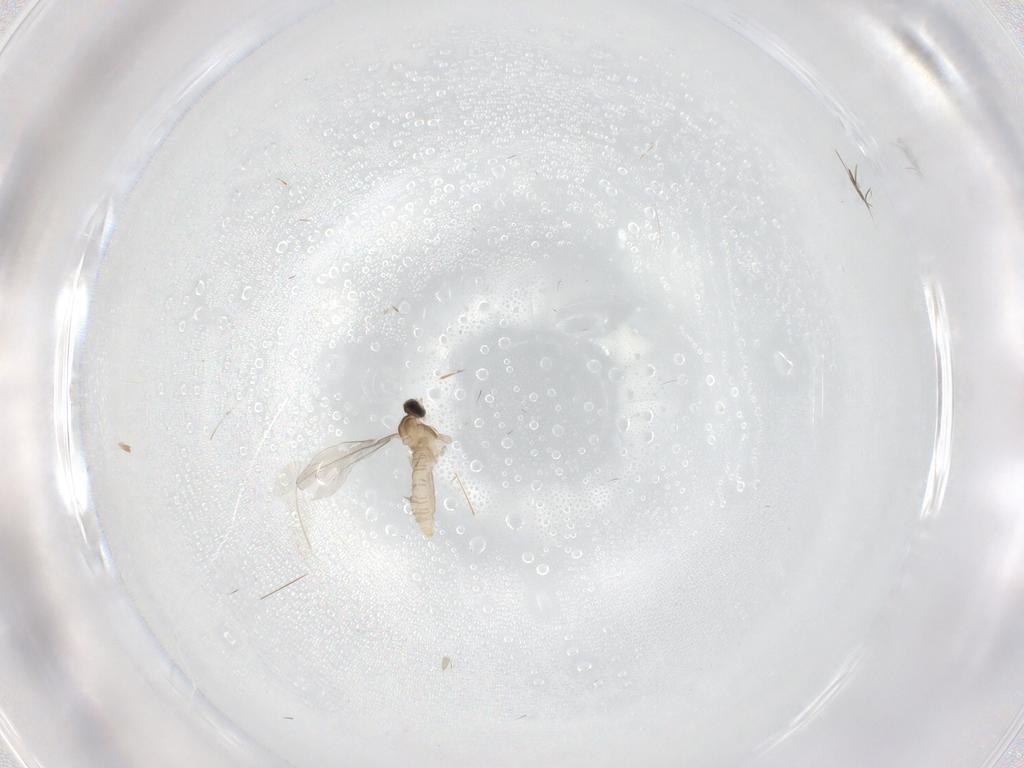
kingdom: Animalia
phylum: Arthropoda
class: Insecta
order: Diptera
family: Cecidomyiidae
